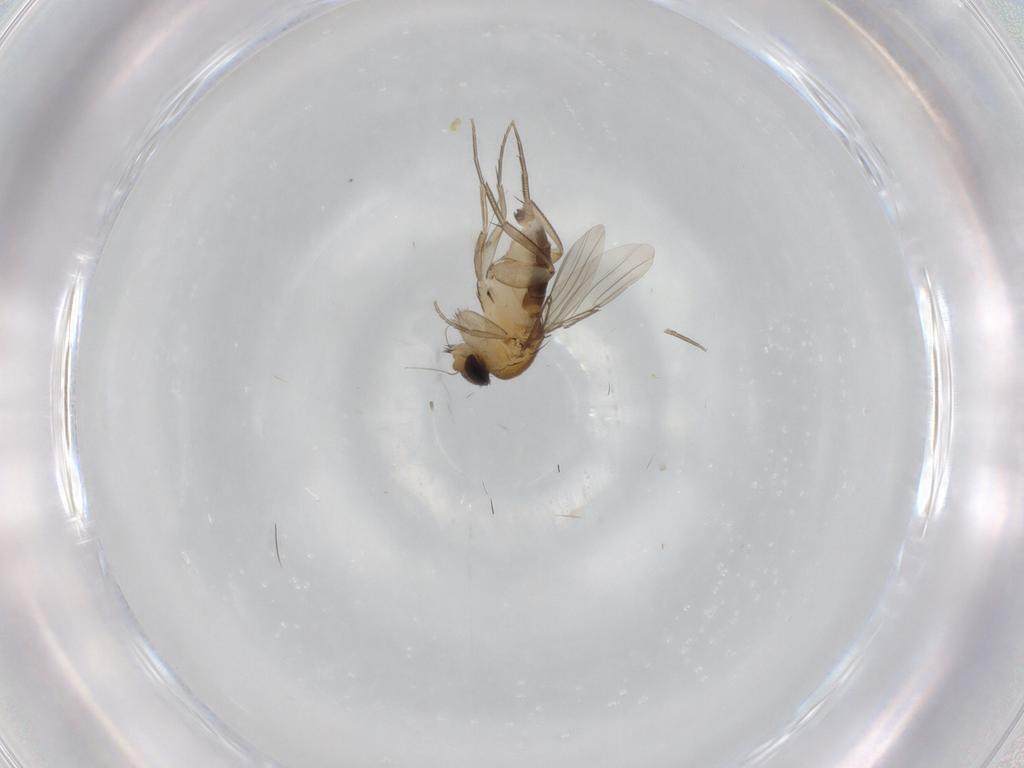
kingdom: Animalia
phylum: Arthropoda
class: Insecta
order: Diptera
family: Phoridae
